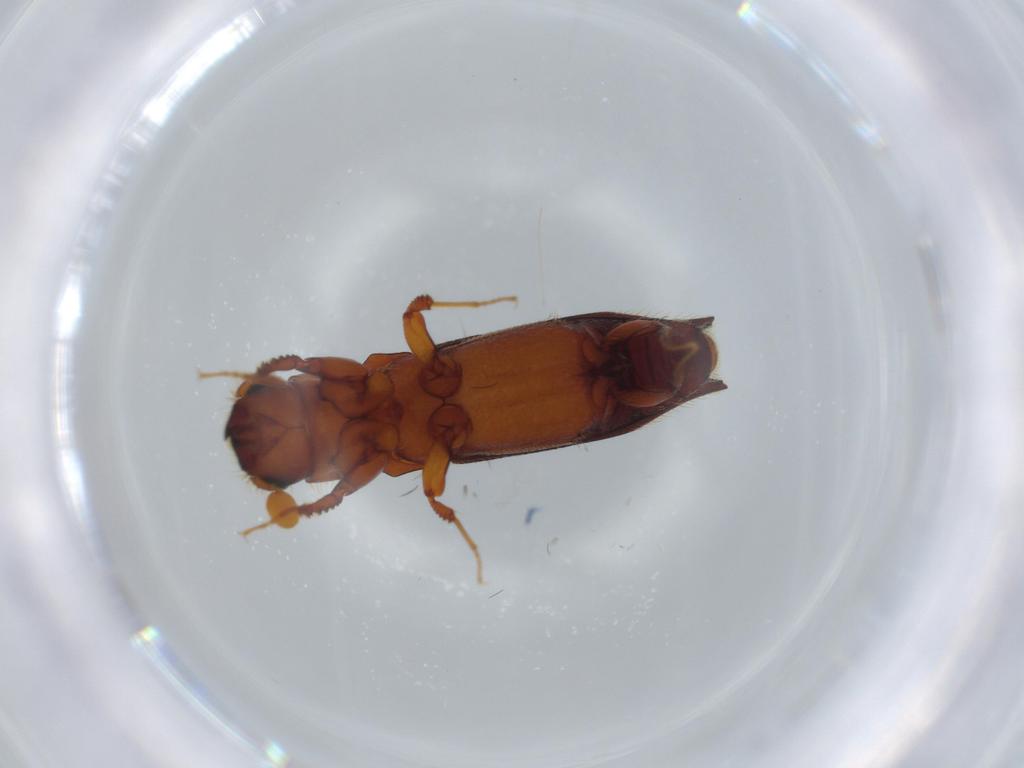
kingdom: Animalia
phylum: Arthropoda
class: Insecta
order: Coleoptera
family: Curculionidae
